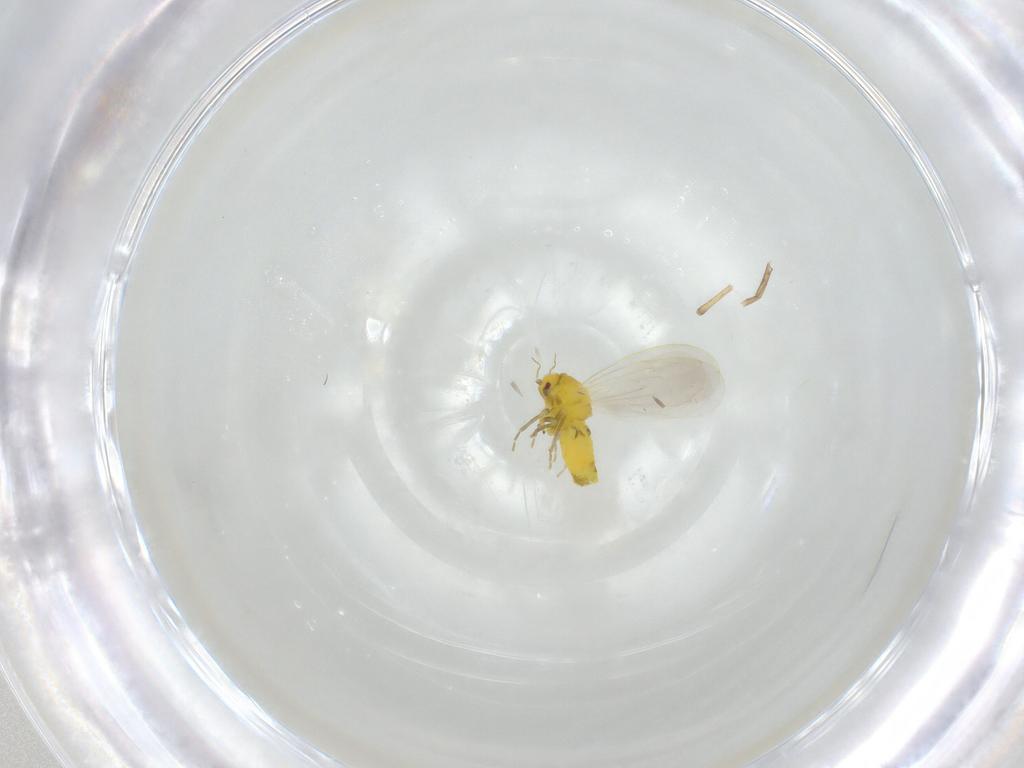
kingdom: Animalia
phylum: Arthropoda
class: Insecta
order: Hemiptera
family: Aleyrodidae
